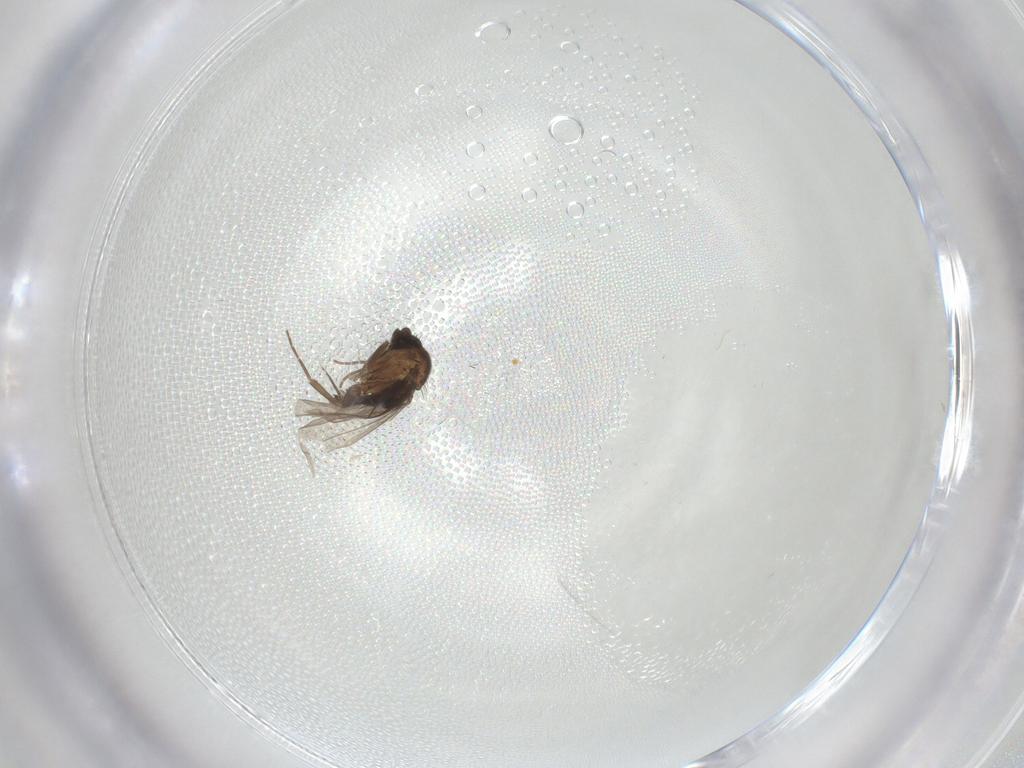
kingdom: Animalia
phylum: Arthropoda
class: Insecta
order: Diptera
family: Cecidomyiidae
